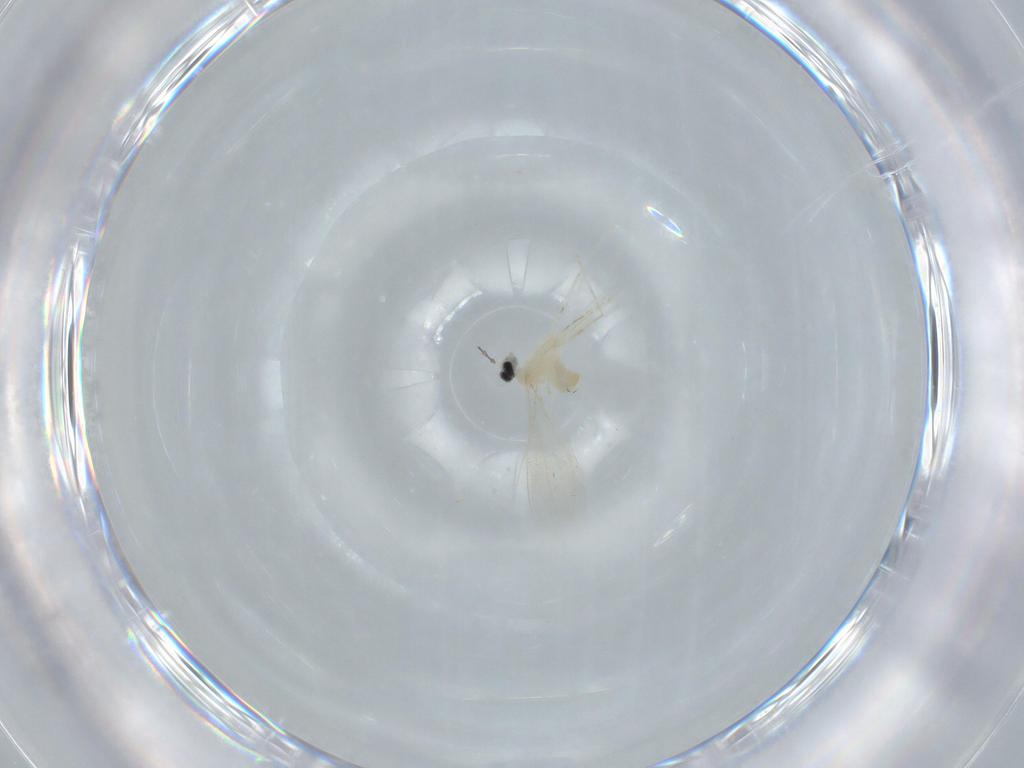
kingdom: Animalia
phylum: Arthropoda
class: Insecta
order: Diptera
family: Cecidomyiidae
